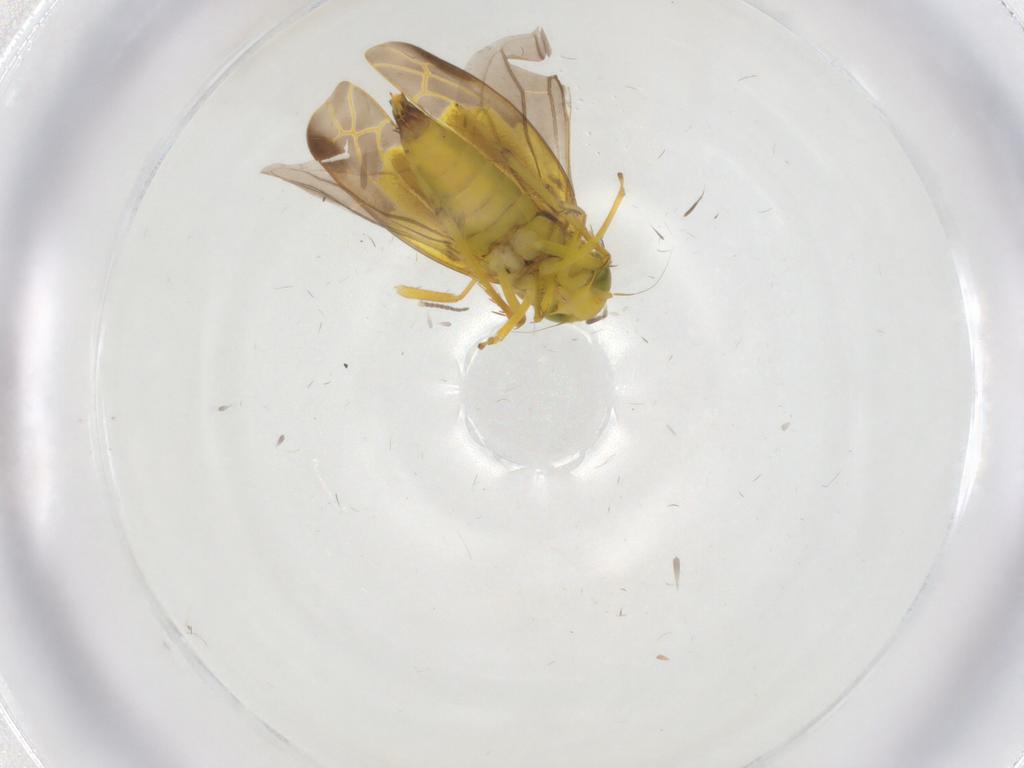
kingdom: Animalia
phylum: Arthropoda
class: Insecta
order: Hemiptera
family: Cicadellidae
